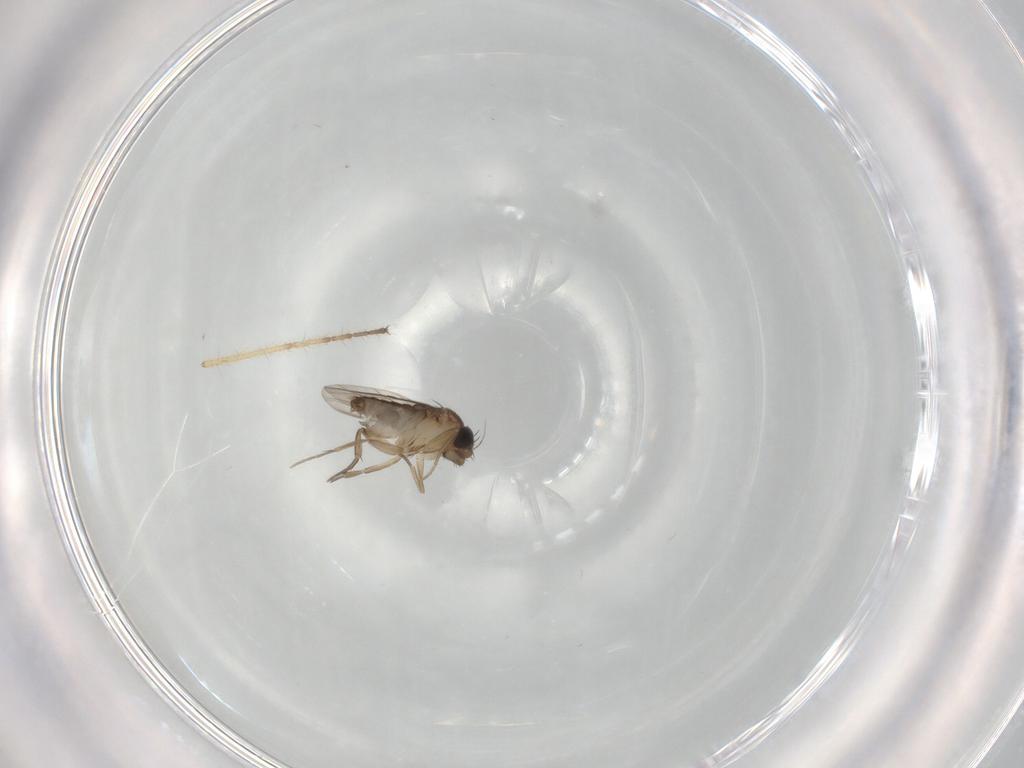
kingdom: Animalia
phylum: Arthropoda
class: Insecta
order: Diptera
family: Phoridae
